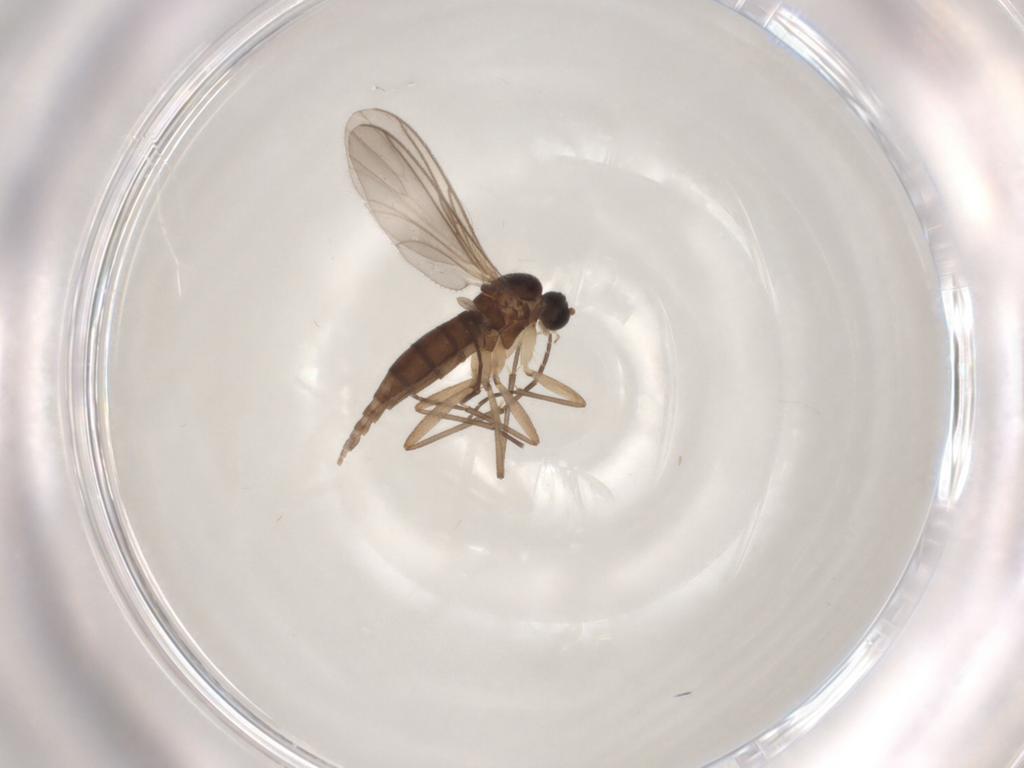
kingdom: Animalia
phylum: Arthropoda
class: Insecta
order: Diptera
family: Sciaridae
